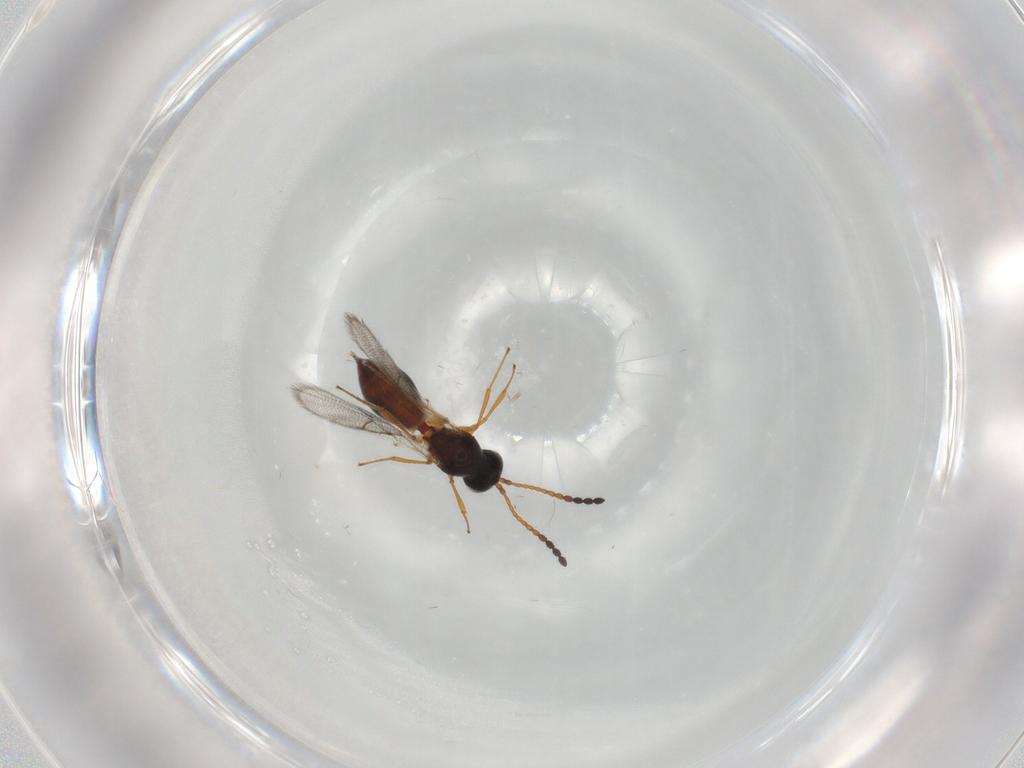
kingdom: Animalia
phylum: Arthropoda
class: Insecta
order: Hymenoptera
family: Figitidae
